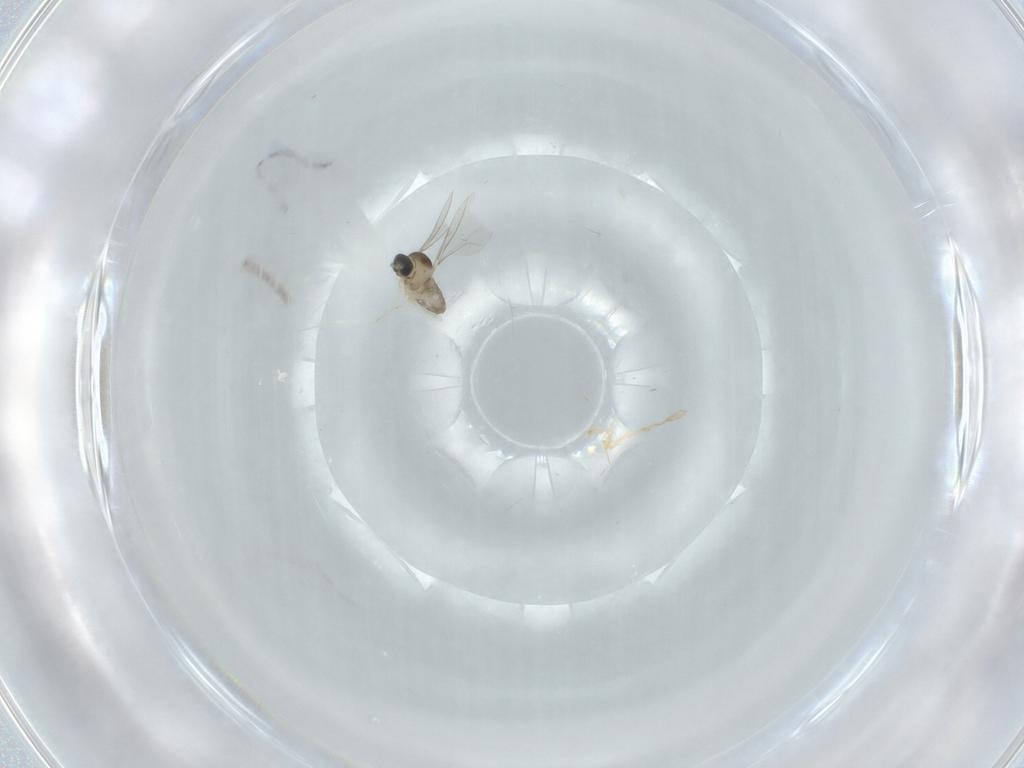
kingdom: Animalia
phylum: Arthropoda
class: Insecta
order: Diptera
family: Cecidomyiidae
